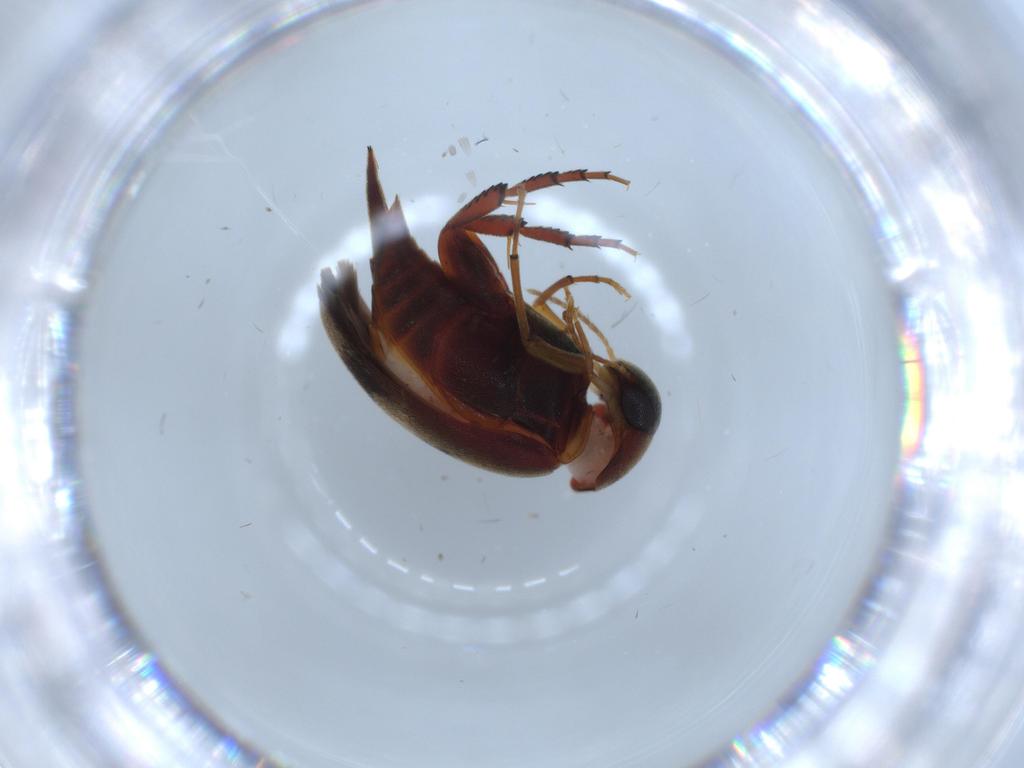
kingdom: Animalia
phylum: Arthropoda
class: Insecta
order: Coleoptera
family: Mordellidae
